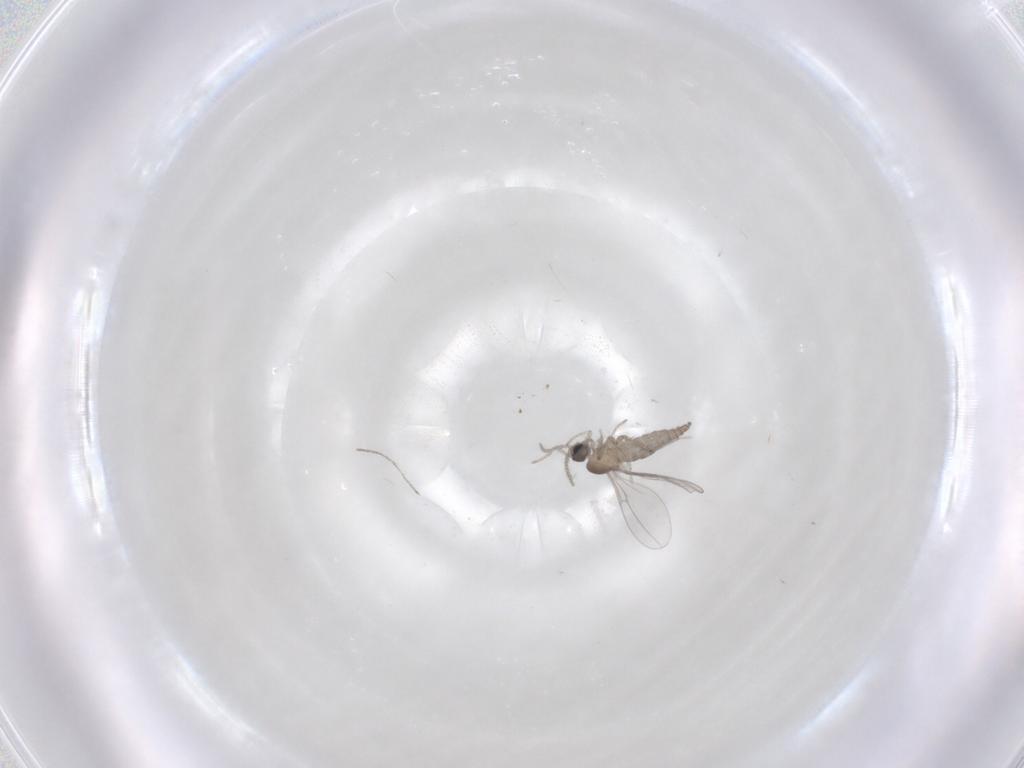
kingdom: Animalia
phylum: Arthropoda
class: Insecta
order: Diptera
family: Cecidomyiidae
